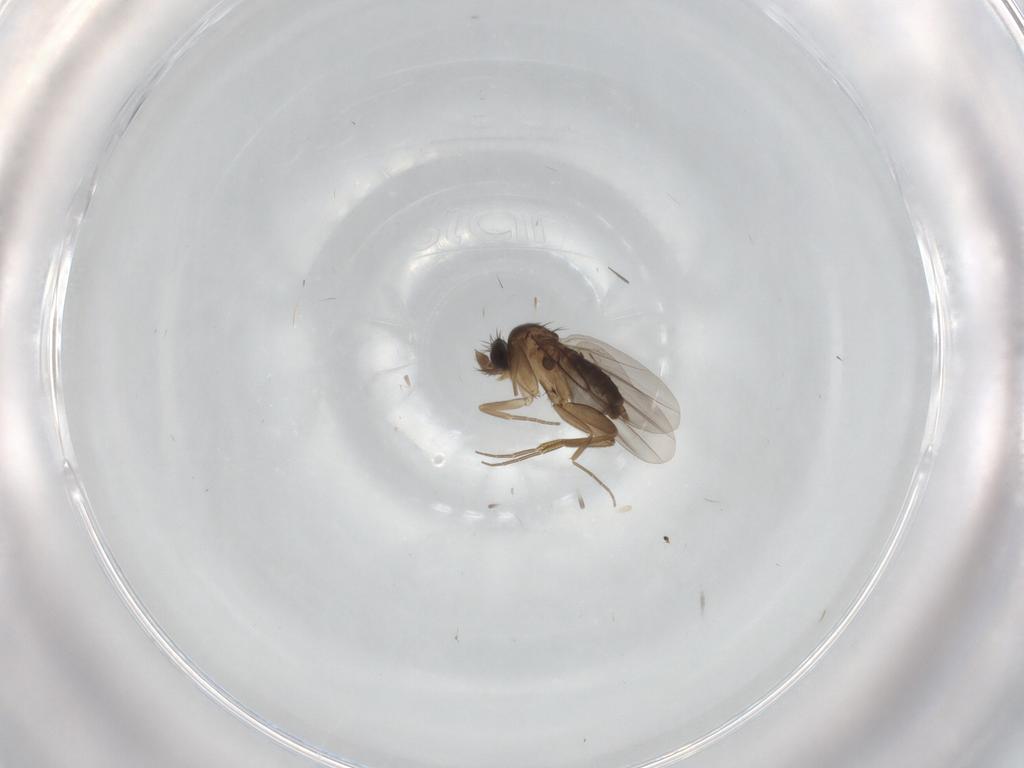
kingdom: Animalia
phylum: Arthropoda
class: Insecta
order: Diptera
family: Phoridae
